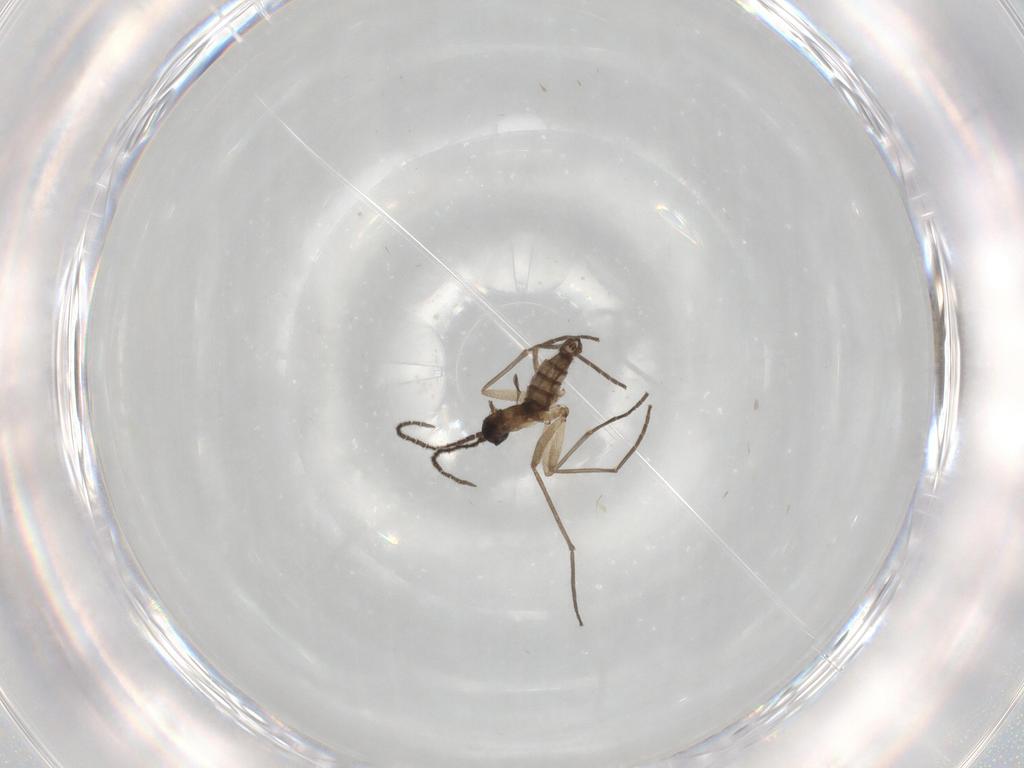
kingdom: Animalia
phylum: Arthropoda
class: Insecta
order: Diptera
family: Sciaridae
